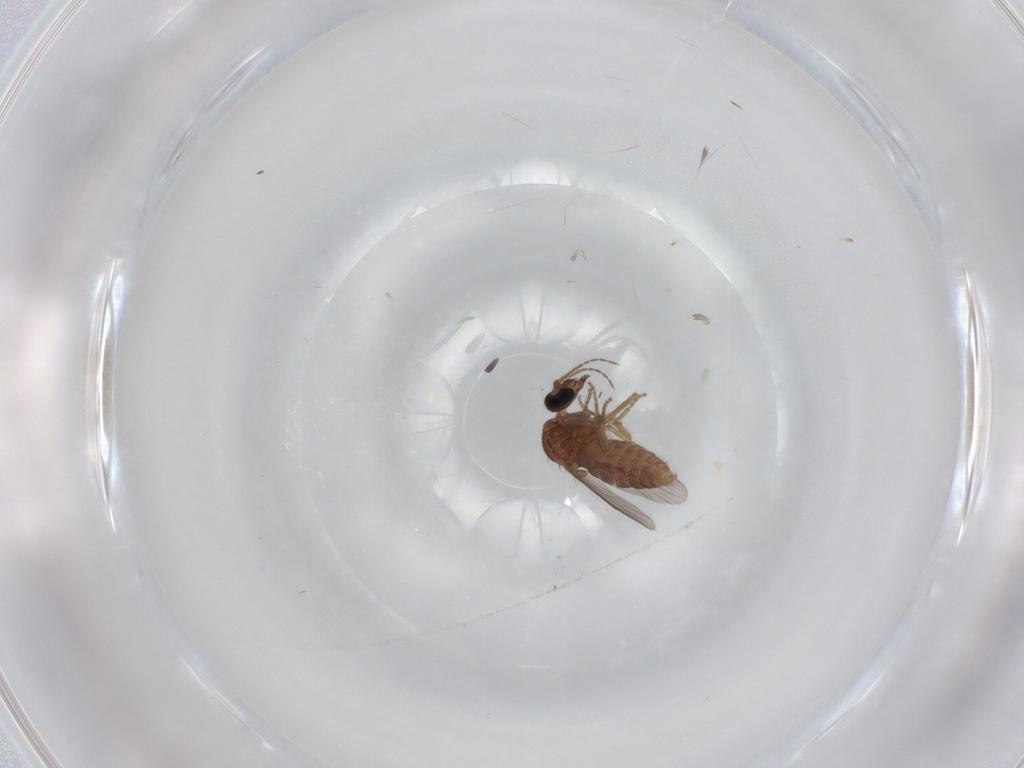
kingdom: Animalia
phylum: Arthropoda
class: Insecta
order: Diptera
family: Ceratopogonidae
